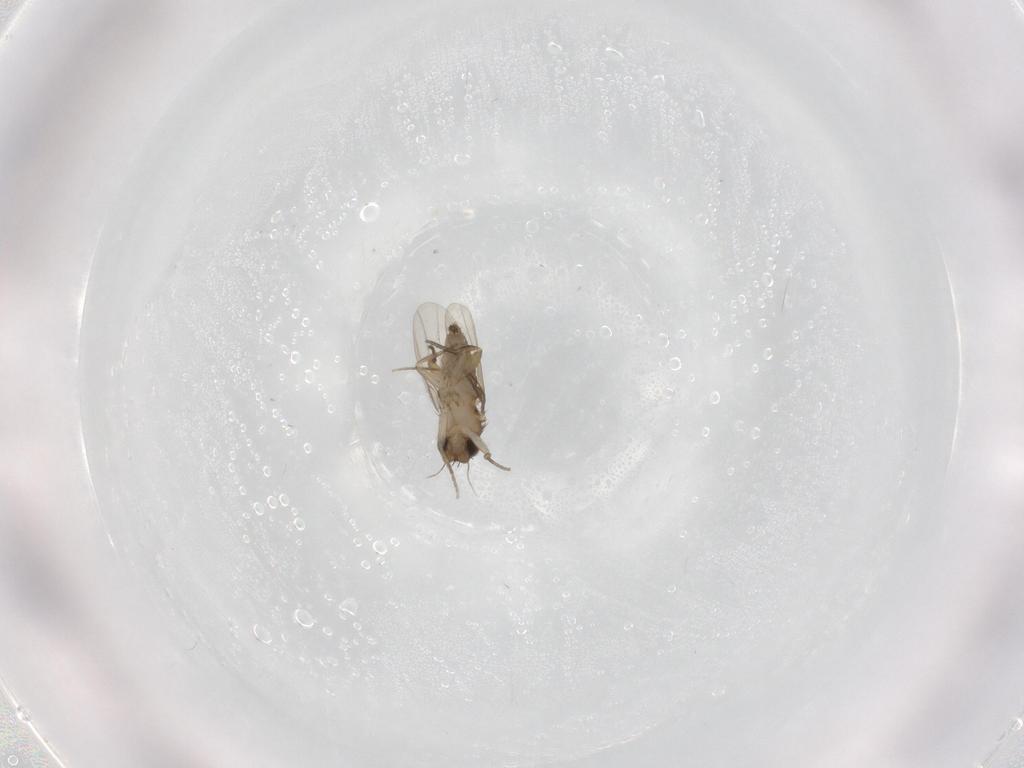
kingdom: Animalia
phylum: Arthropoda
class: Insecta
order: Diptera
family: Phoridae
